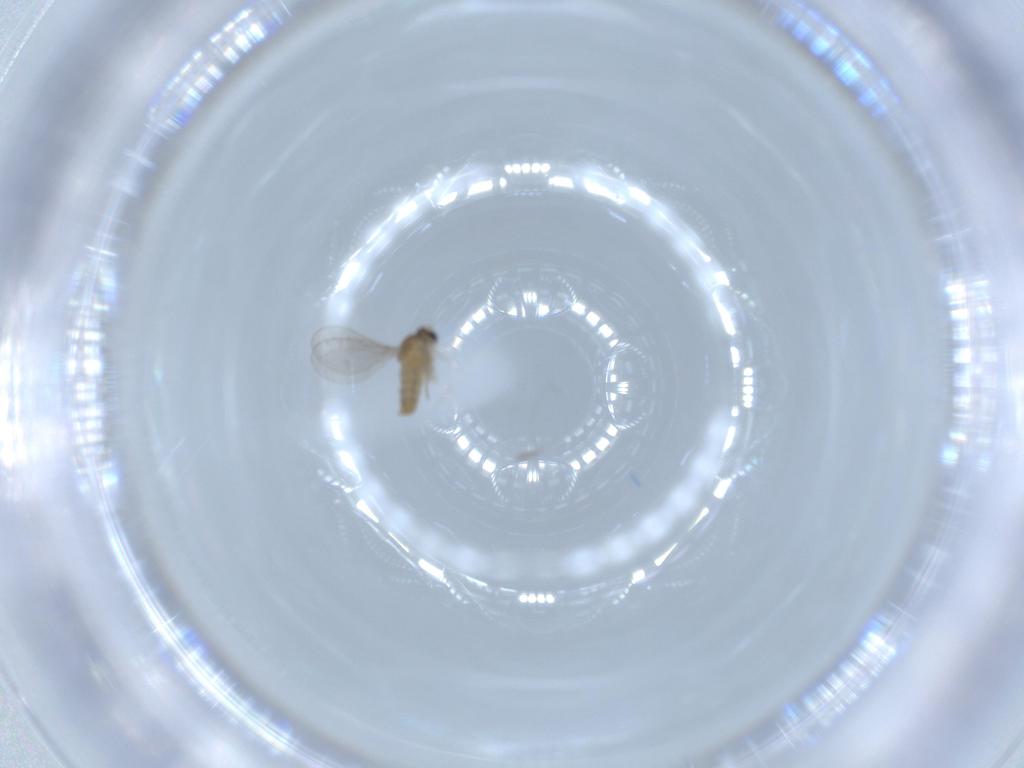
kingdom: Animalia
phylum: Arthropoda
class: Insecta
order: Diptera
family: Cecidomyiidae
